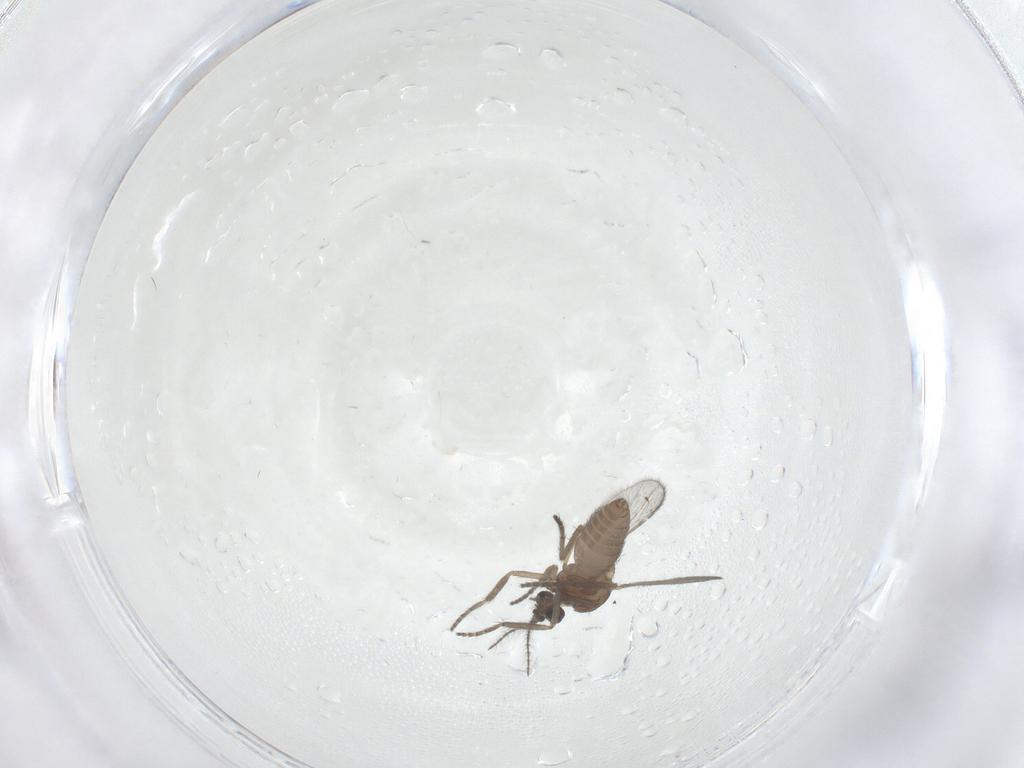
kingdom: Animalia
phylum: Arthropoda
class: Insecta
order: Diptera
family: Ceratopogonidae
